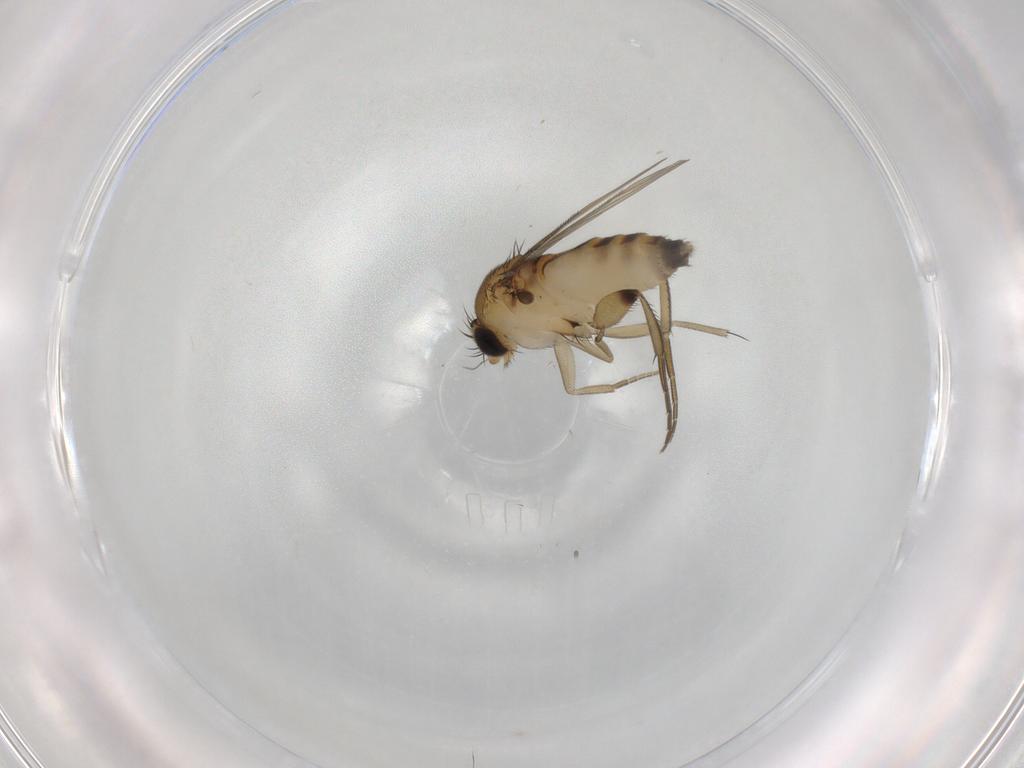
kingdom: Animalia
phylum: Arthropoda
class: Insecta
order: Diptera
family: Phoridae
